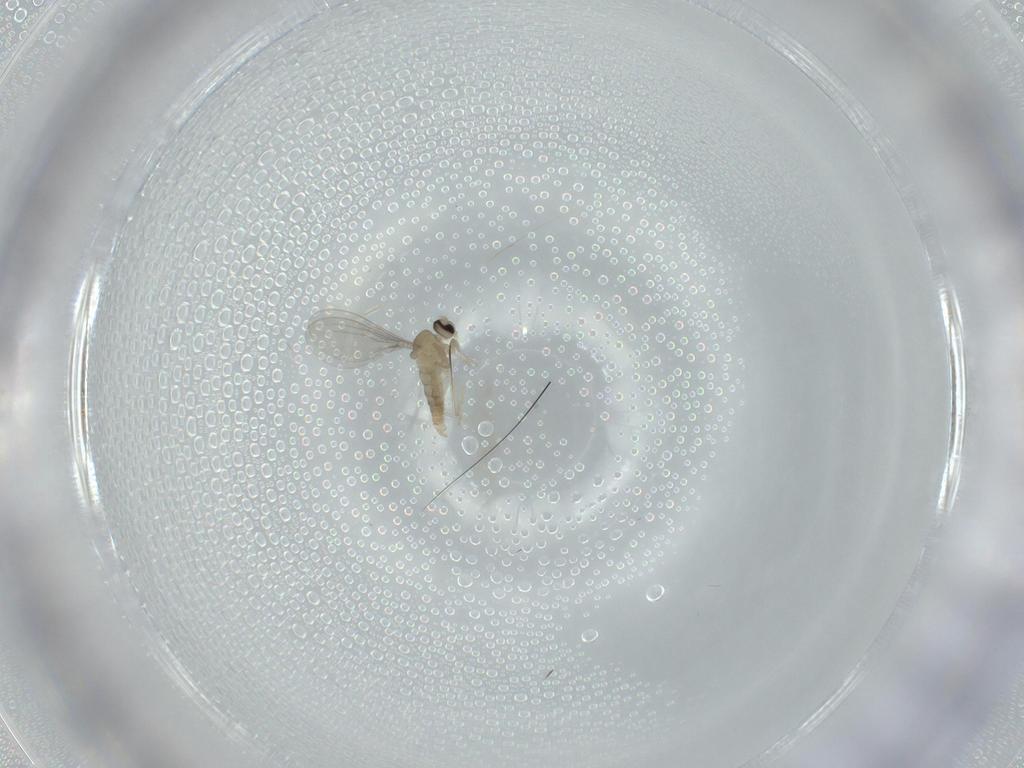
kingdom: Animalia
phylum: Arthropoda
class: Insecta
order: Diptera
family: Cecidomyiidae
